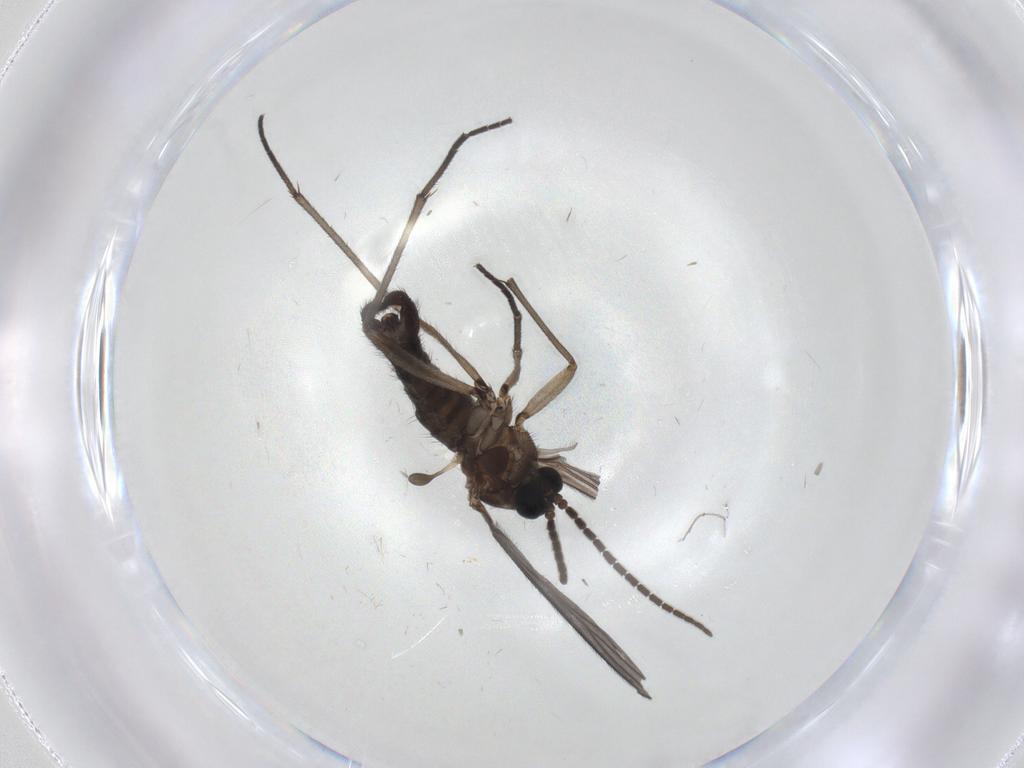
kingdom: Animalia
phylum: Arthropoda
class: Insecta
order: Diptera
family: Sciaridae
